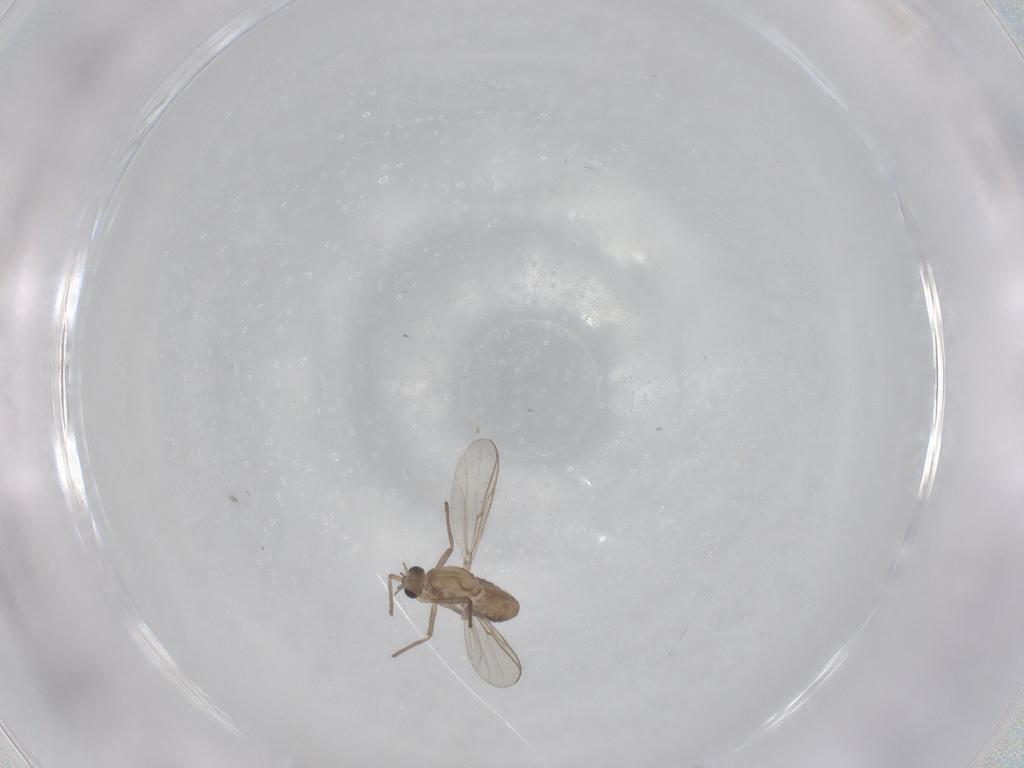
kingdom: Animalia
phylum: Arthropoda
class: Insecta
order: Diptera
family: Chironomidae
